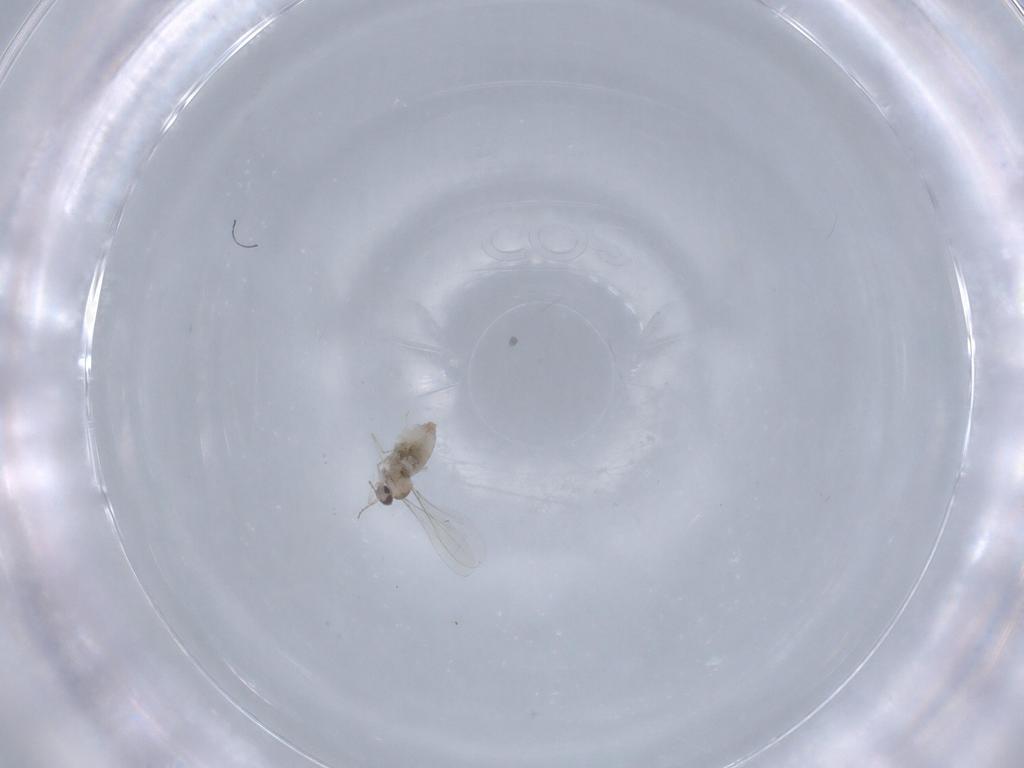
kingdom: Animalia
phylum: Arthropoda
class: Insecta
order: Diptera
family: Cecidomyiidae
